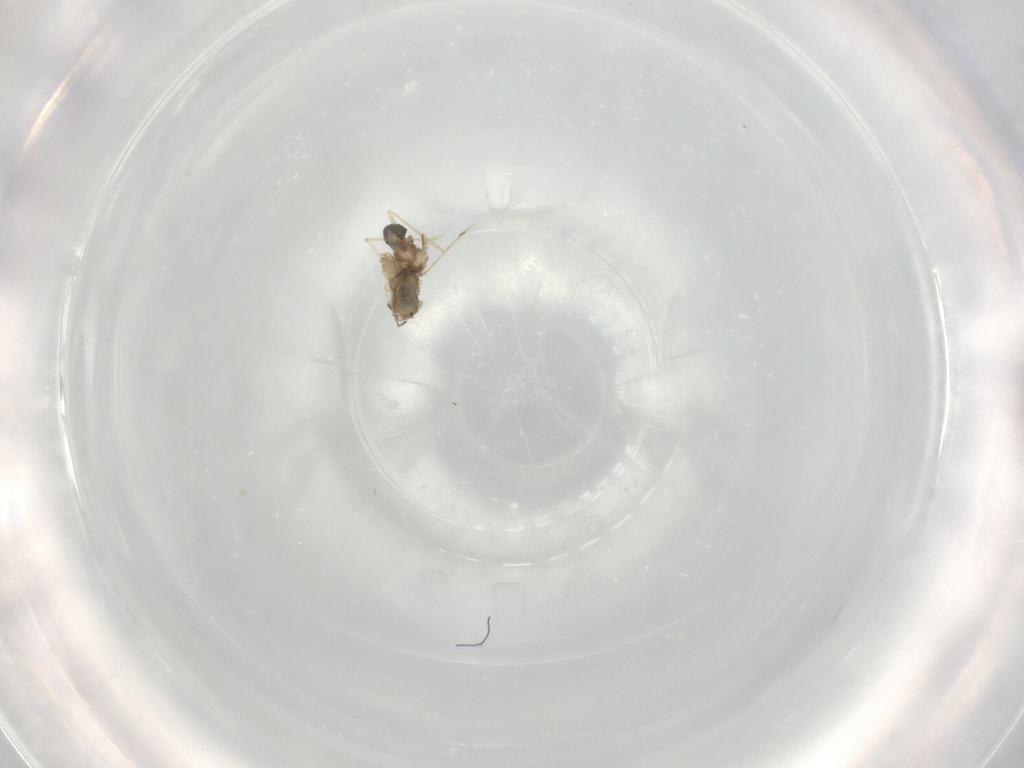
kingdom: Animalia
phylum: Arthropoda
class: Insecta
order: Diptera
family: Cecidomyiidae
